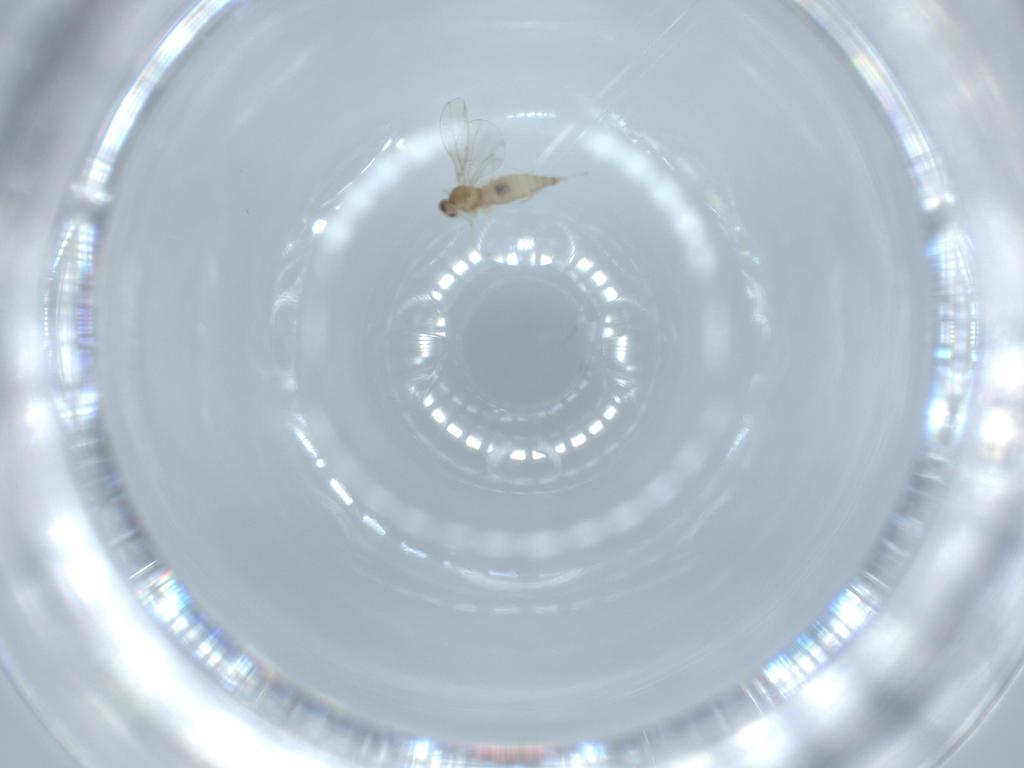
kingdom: Animalia
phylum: Arthropoda
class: Insecta
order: Diptera
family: Cecidomyiidae
